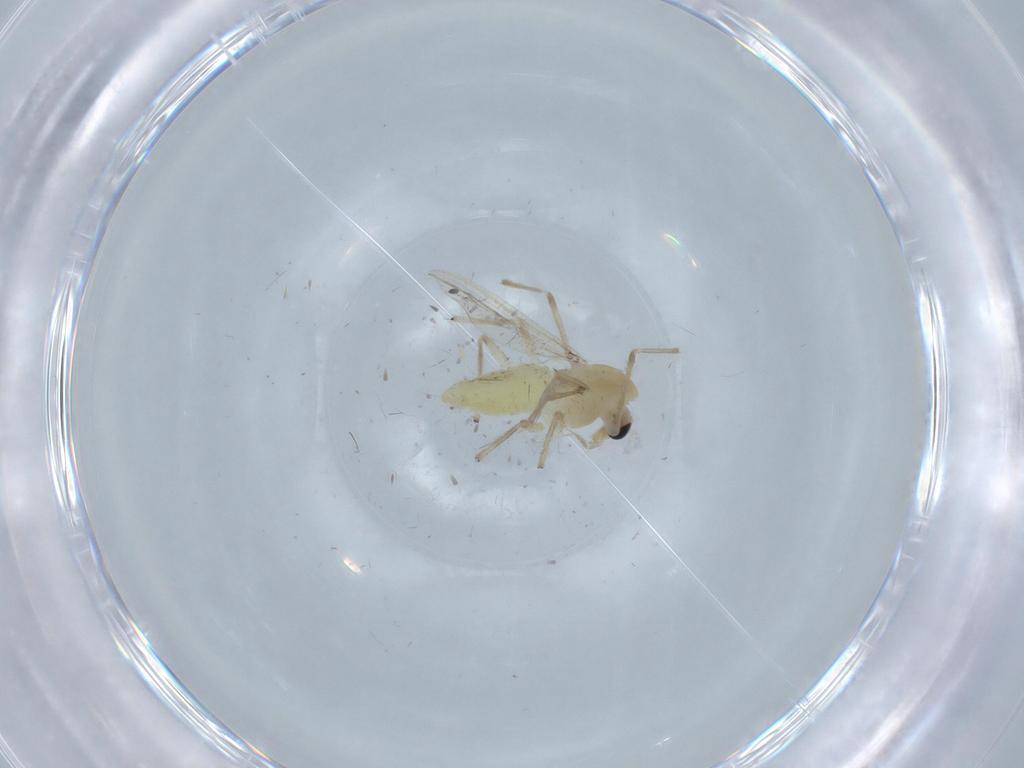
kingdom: Animalia
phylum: Arthropoda
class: Insecta
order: Diptera
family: Chironomidae
